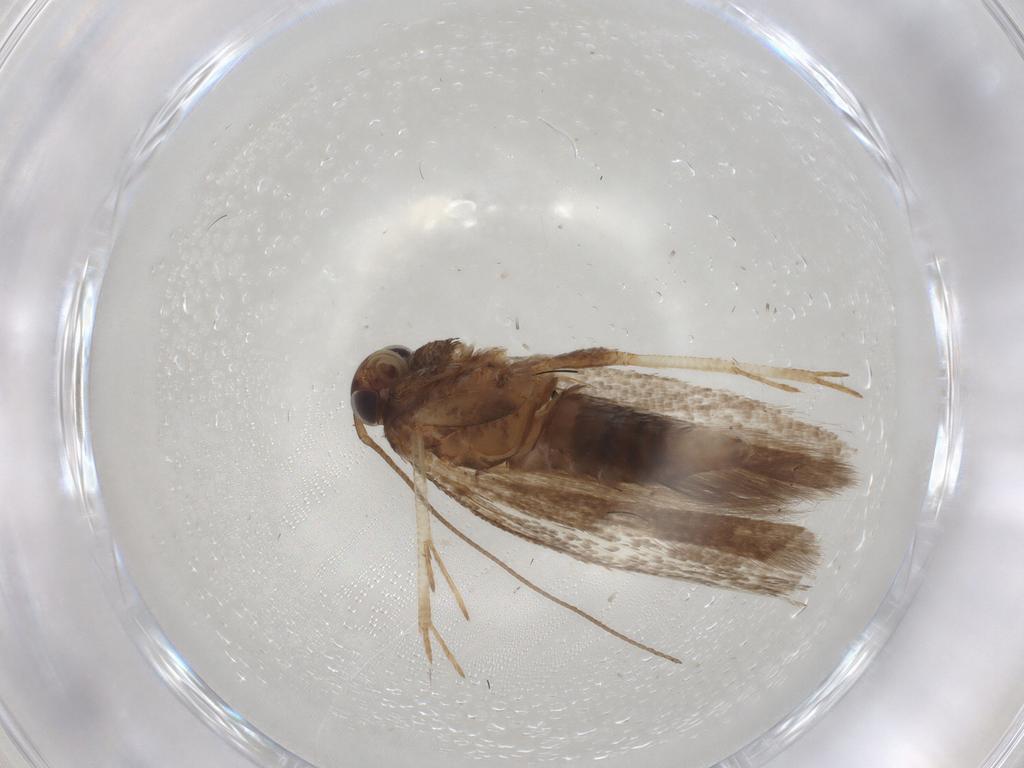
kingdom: Animalia
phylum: Arthropoda
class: Insecta
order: Lepidoptera
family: Gelechiidae
